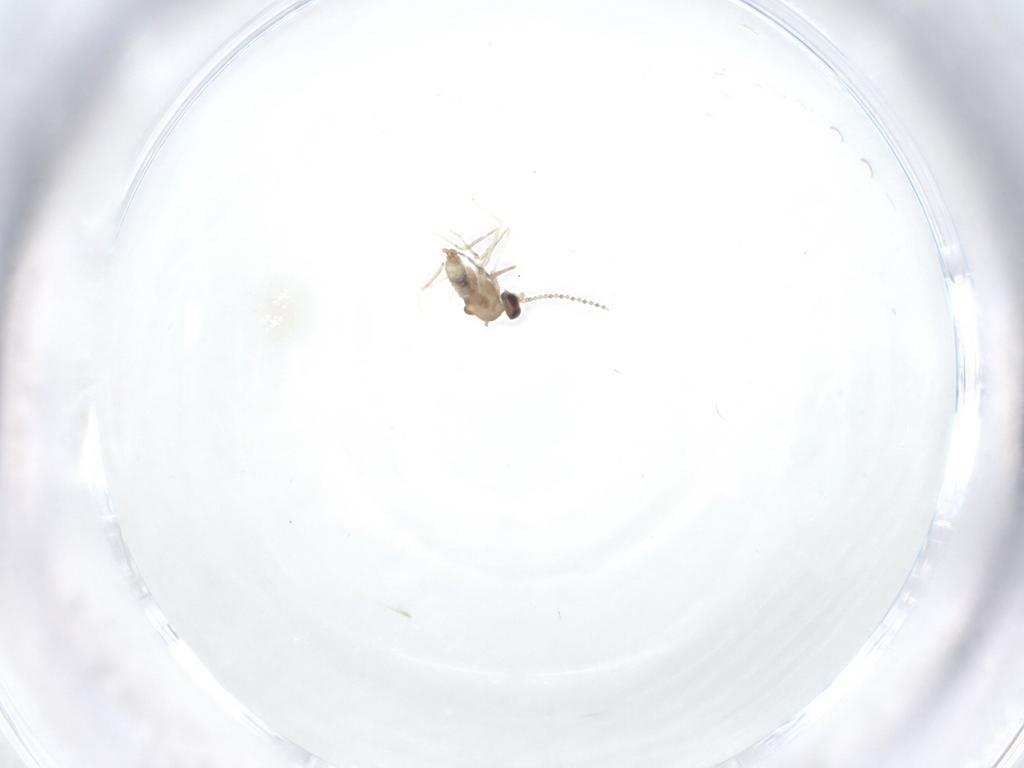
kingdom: Animalia
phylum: Arthropoda
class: Insecta
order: Diptera
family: Cecidomyiidae
